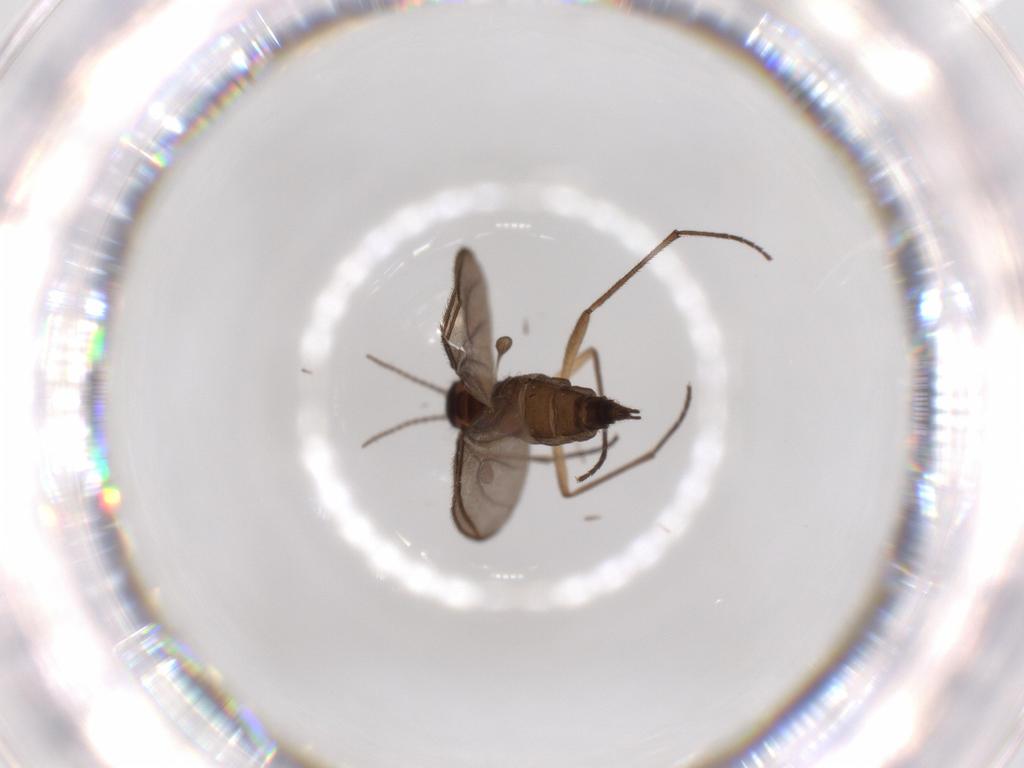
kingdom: Animalia
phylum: Arthropoda
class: Insecta
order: Diptera
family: Sciaridae
